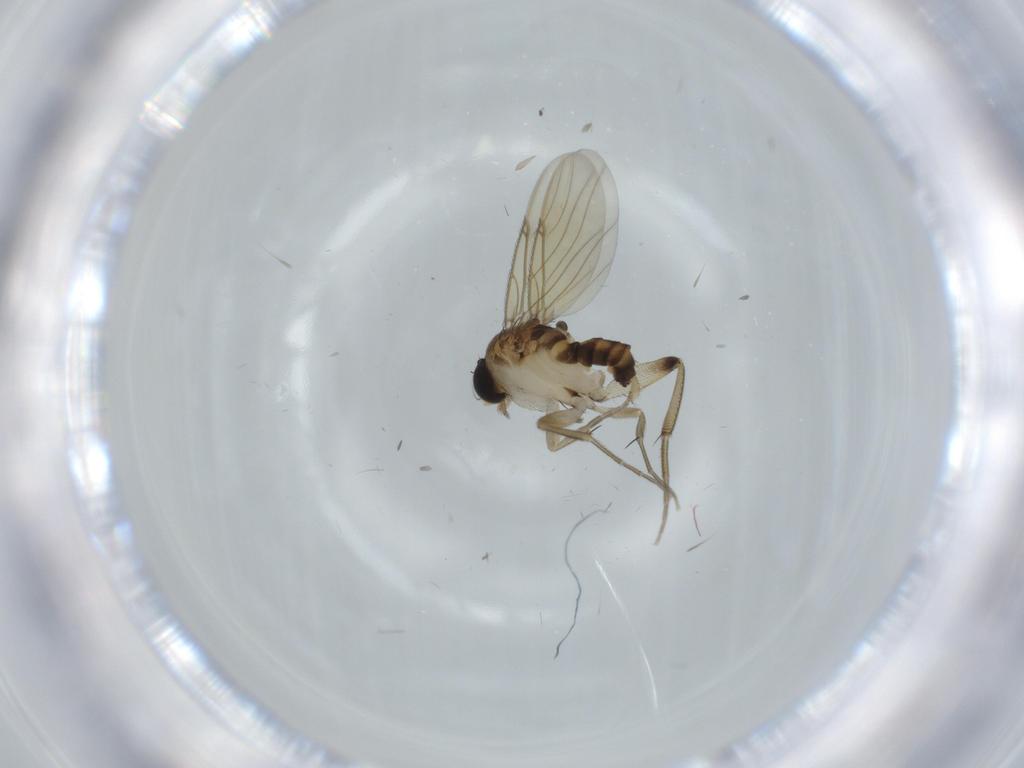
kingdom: Animalia
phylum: Arthropoda
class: Insecta
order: Diptera
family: Phoridae
